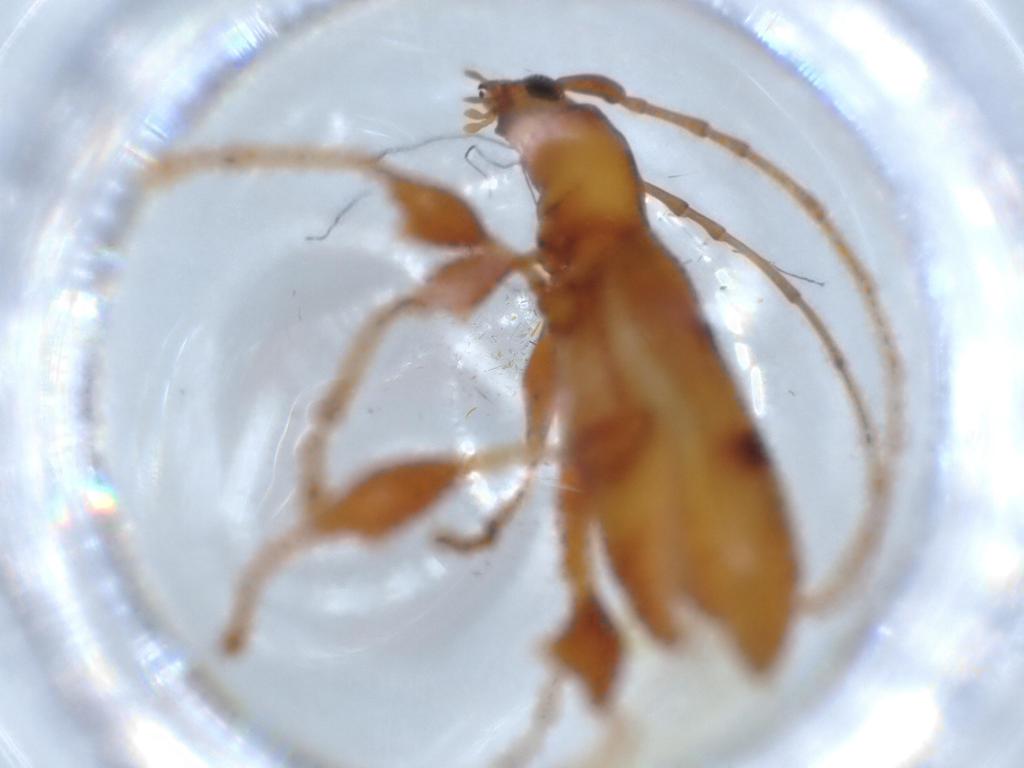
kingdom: Animalia
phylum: Arthropoda
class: Insecta
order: Coleoptera
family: Cerambycidae
